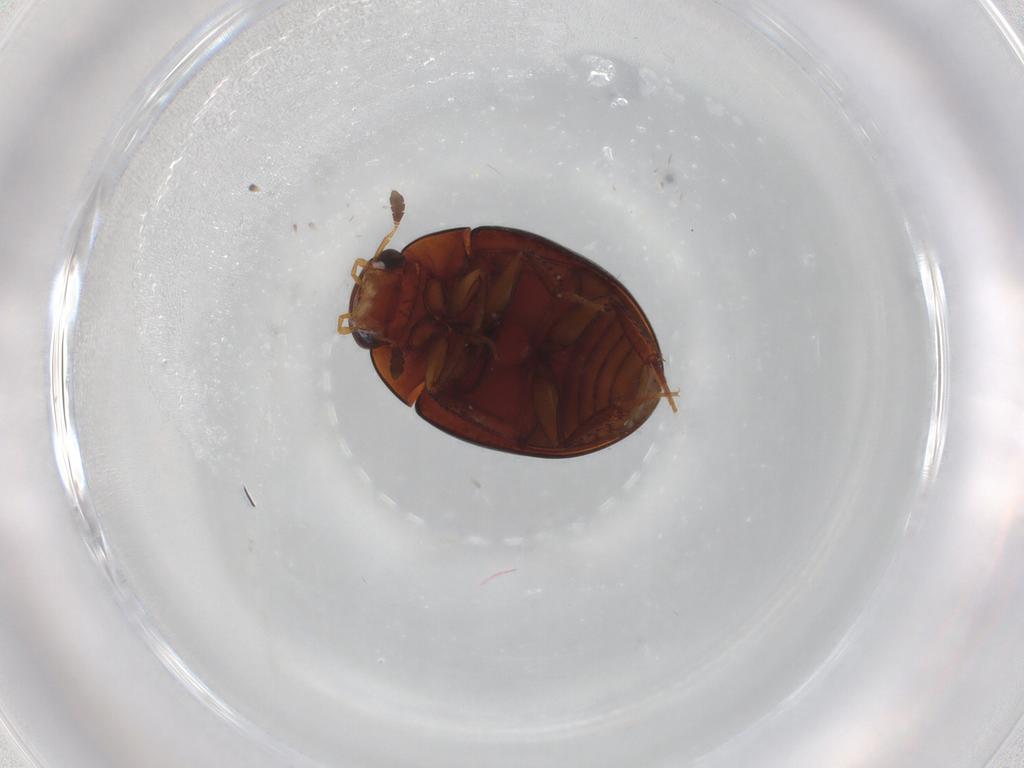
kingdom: Animalia
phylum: Arthropoda
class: Insecta
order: Coleoptera
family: Hydrophilidae
